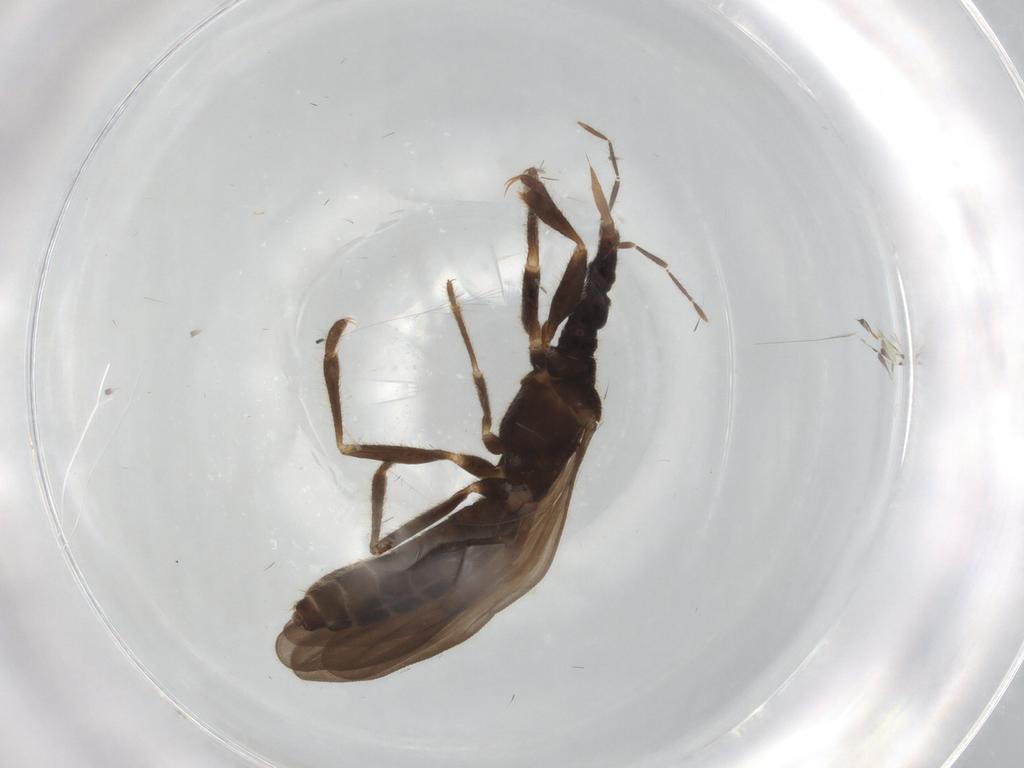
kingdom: Animalia
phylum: Arthropoda
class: Insecta
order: Hemiptera
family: Enicocephalidae
